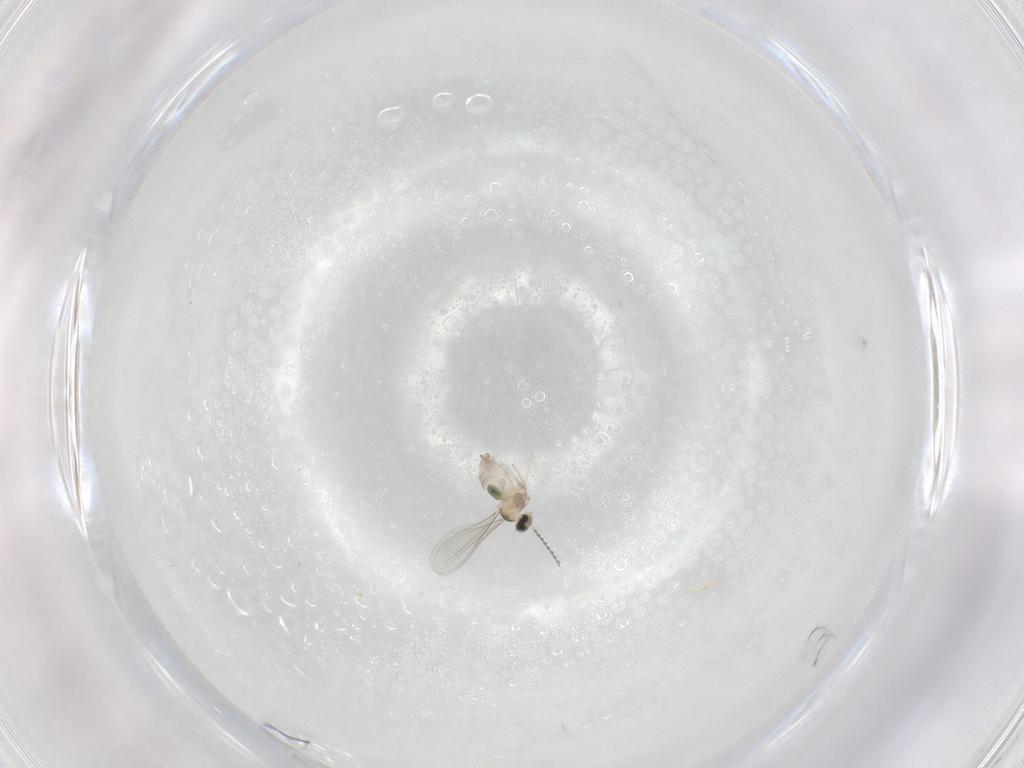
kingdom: Animalia
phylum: Arthropoda
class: Insecta
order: Diptera
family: Cecidomyiidae
